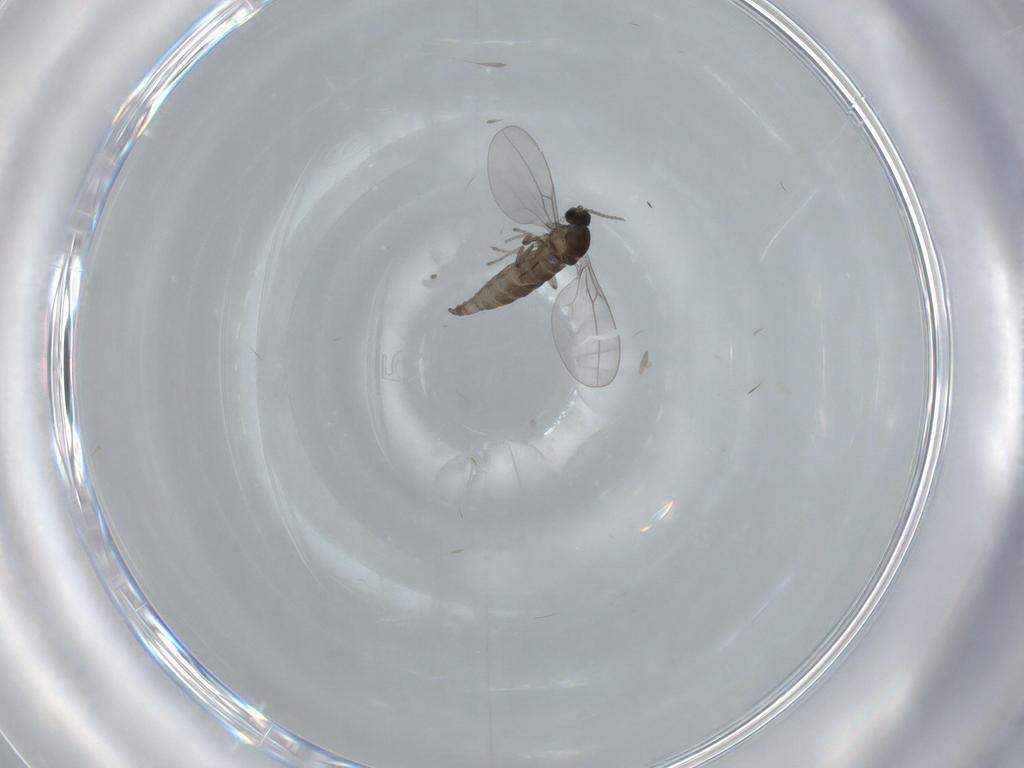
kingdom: Animalia
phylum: Arthropoda
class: Insecta
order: Diptera
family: Cecidomyiidae
